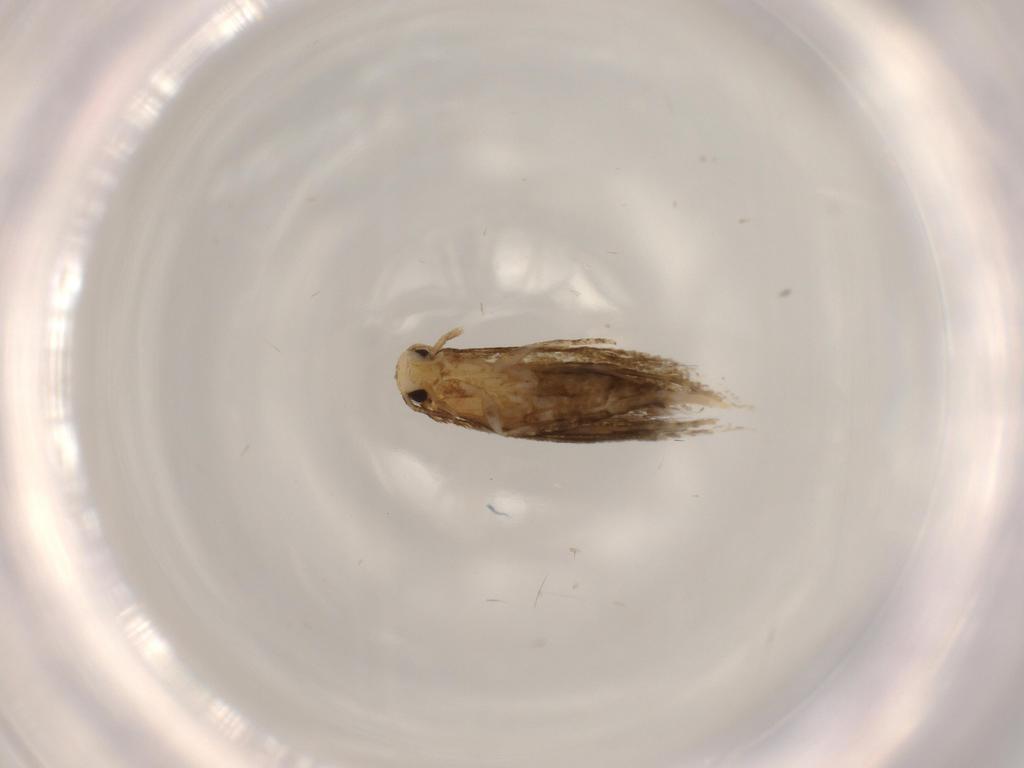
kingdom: Animalia
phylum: Arthropoda
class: Insecta
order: Lepidoptera
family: Tineidae
